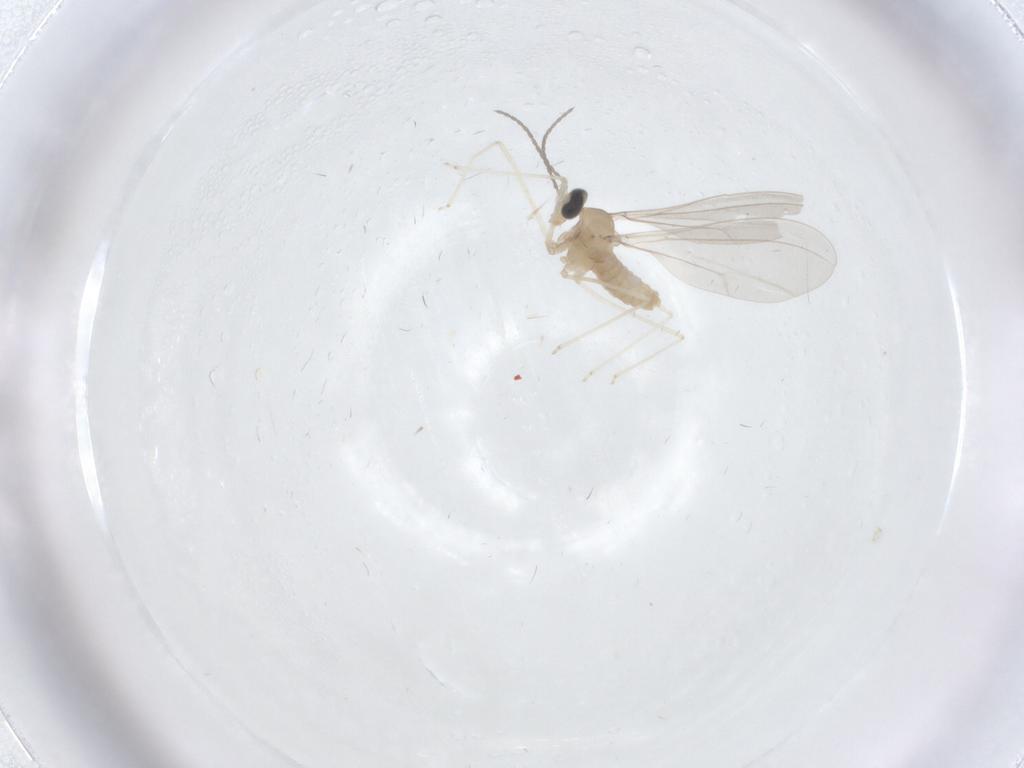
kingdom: Animalia
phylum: Arthropoda
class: Insecta
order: Diptera
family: Cecidomyiidae
